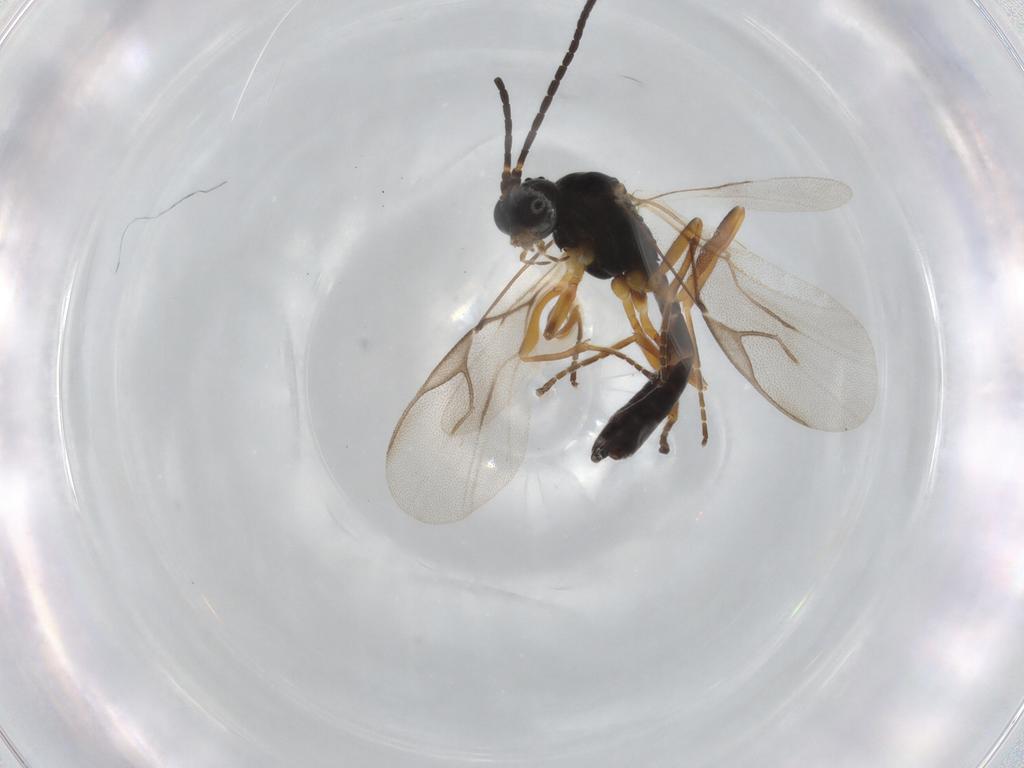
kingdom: Animalia
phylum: Arthropoda
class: Insecta
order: Hymenoptera
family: Braconidae
